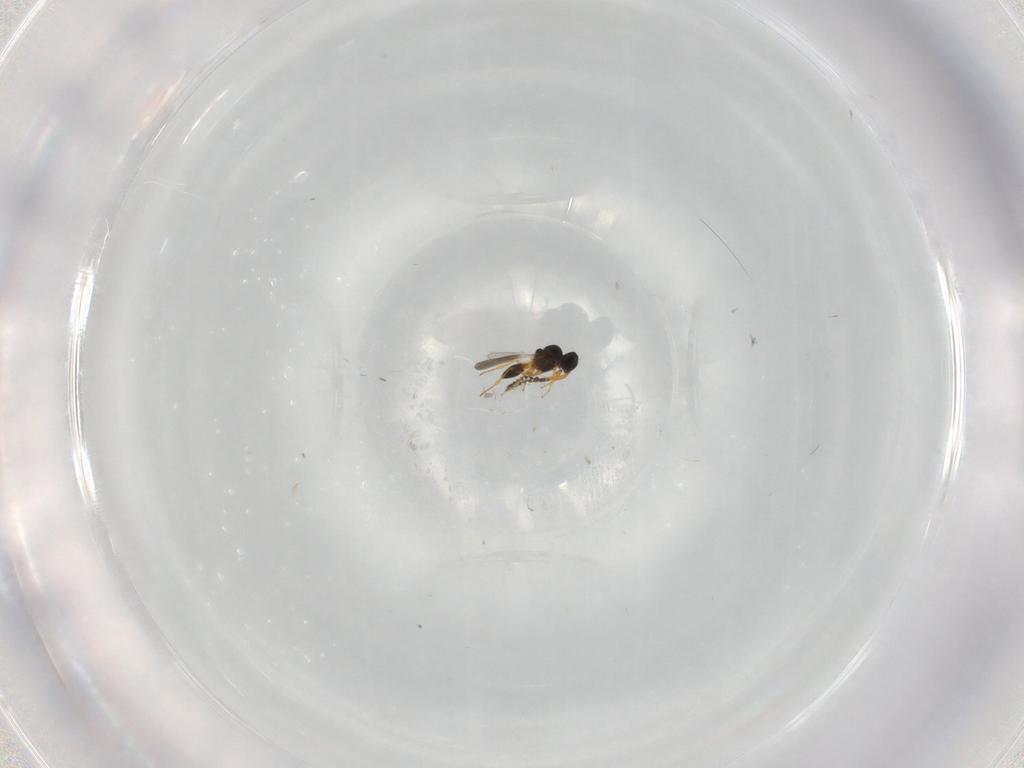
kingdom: Animalia
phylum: Arthropoda
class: Insecta
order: Hymenoptera
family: Platygastridae
